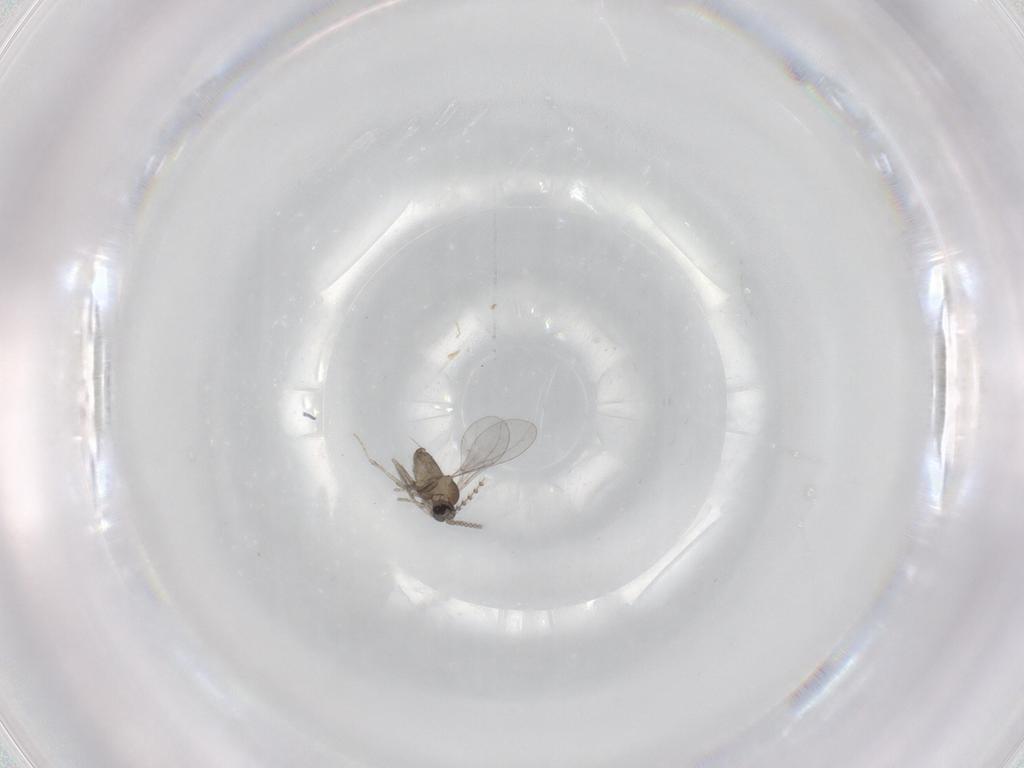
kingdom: Animalia
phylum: Arthropoda
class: Insecta
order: Diptera
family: Cecidomyiidae
